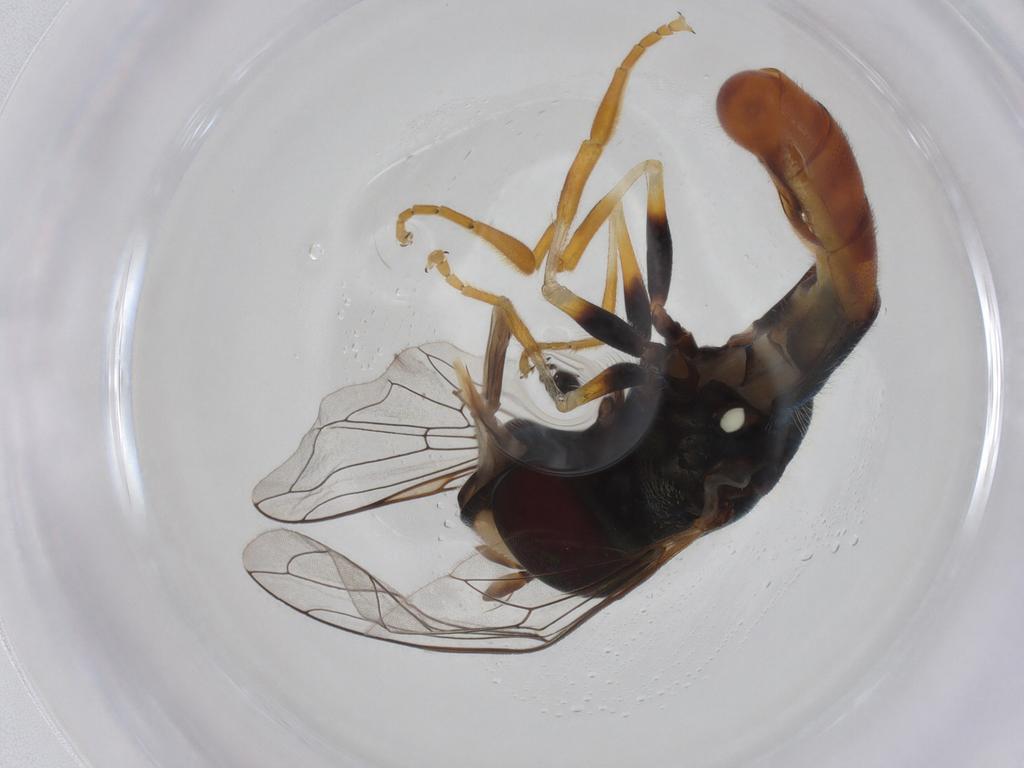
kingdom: Animalia
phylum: Arthropoda
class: Insecta
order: Diptera
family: Syrphidae
